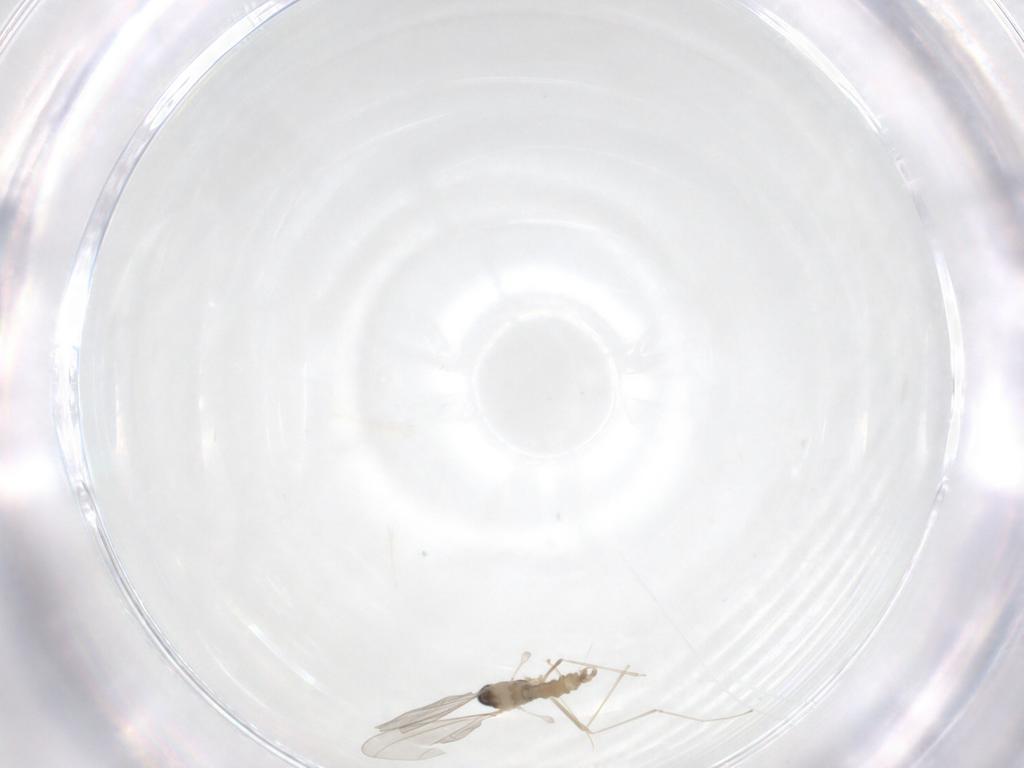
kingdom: Animalia
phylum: Arthropoda
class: Insecta
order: Diptera
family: Cecidomyiidae
